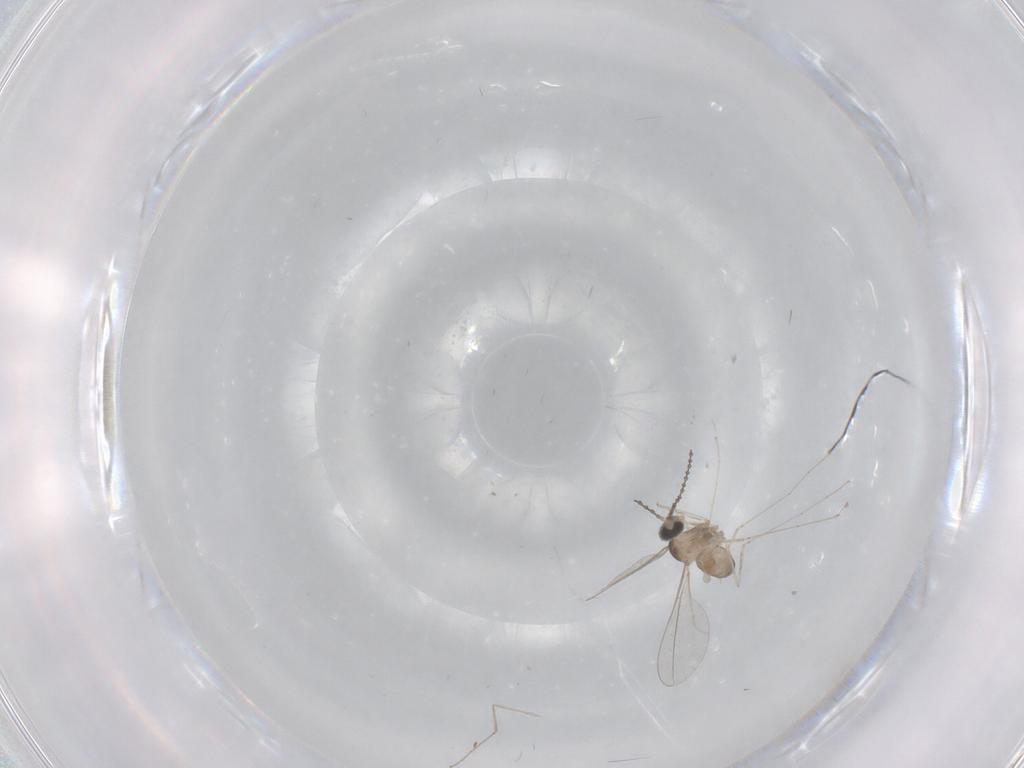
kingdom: Animalia
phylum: Arthropoda
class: Insecta
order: Diptera
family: Cecidomyiidae
